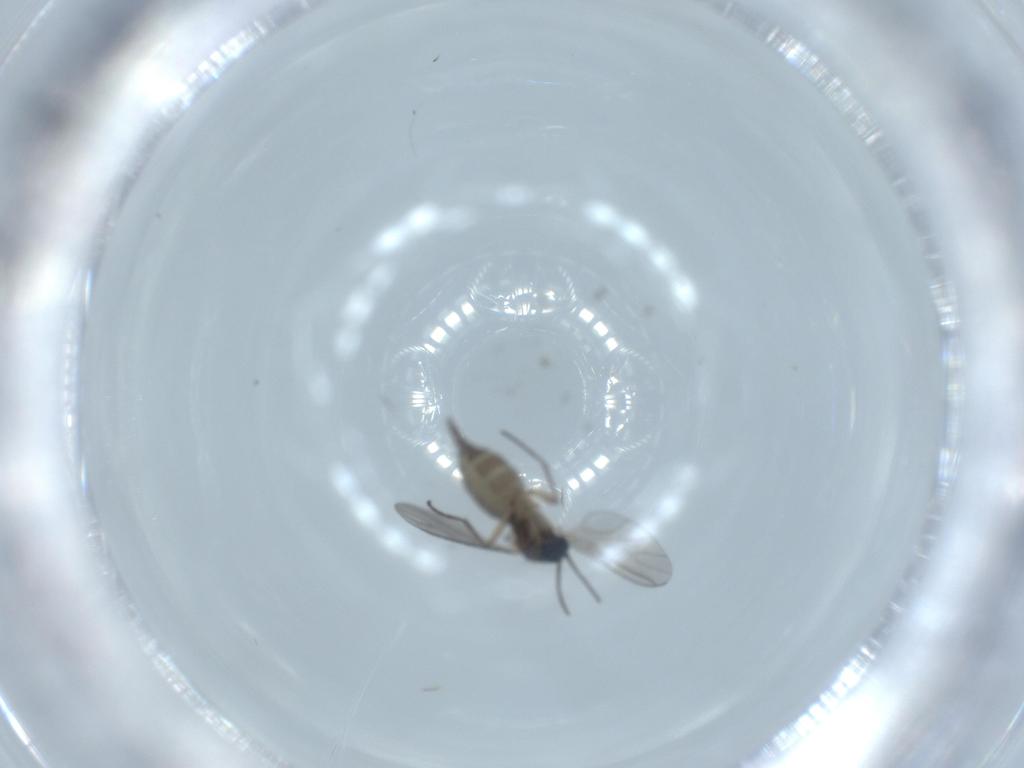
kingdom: Animalia
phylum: Arthropoda
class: Insecta
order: Diptera
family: Sciaridae
